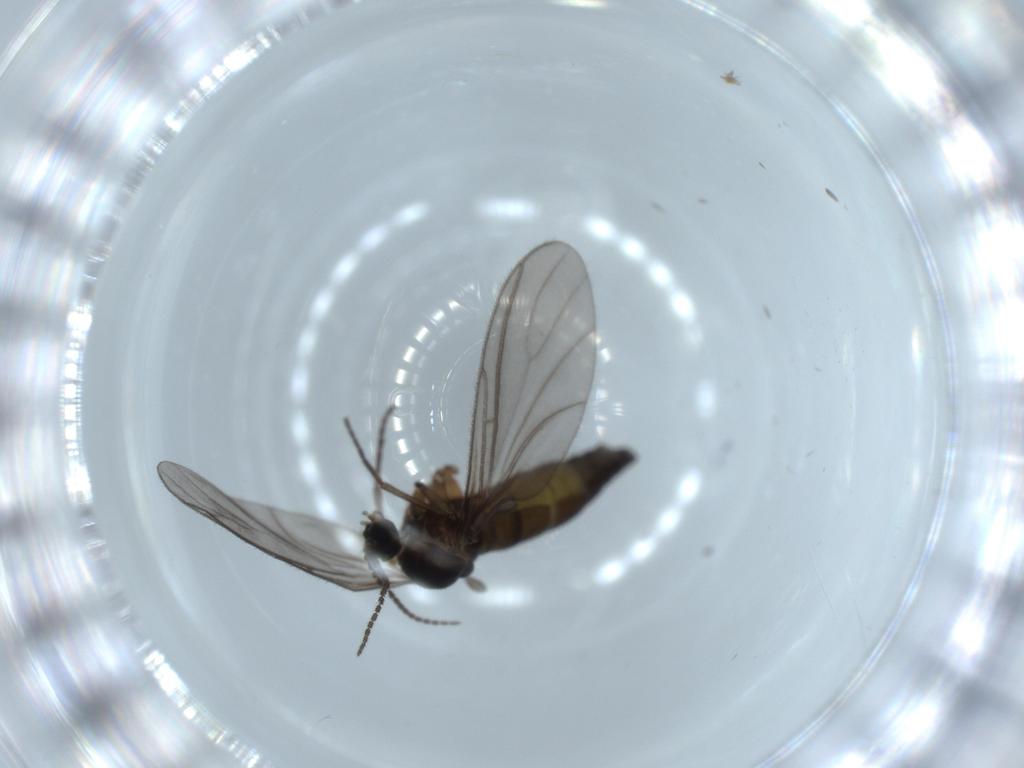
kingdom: Animalia
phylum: Arthropoda
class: Insecta
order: Diptera
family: Sciaridae
